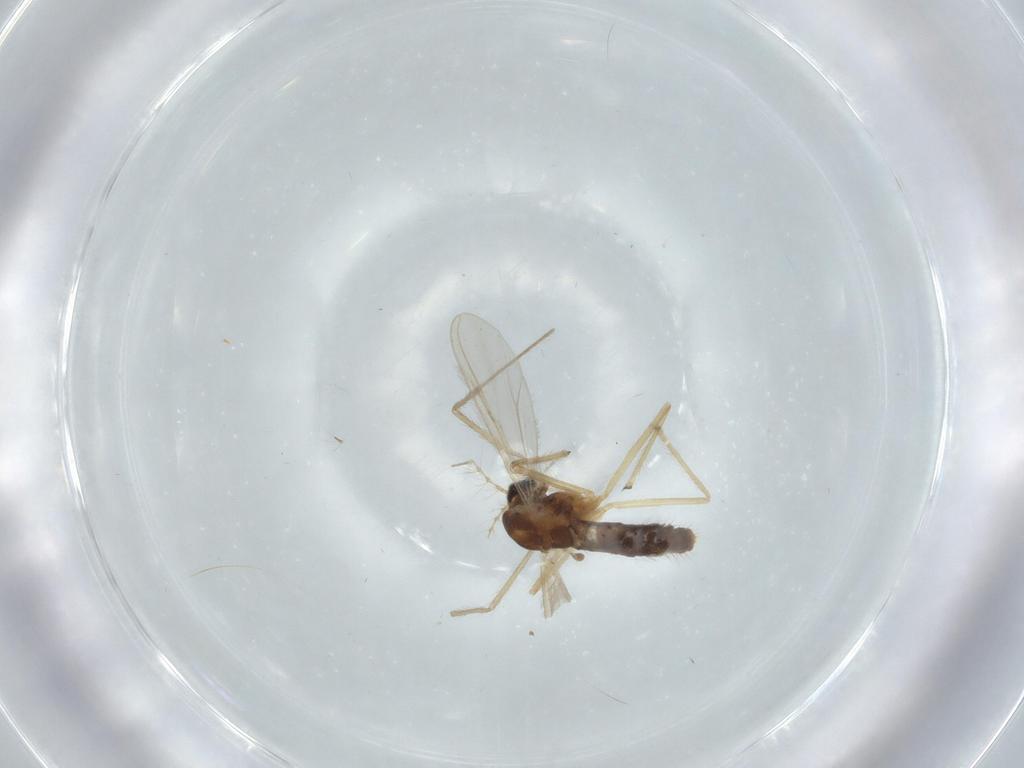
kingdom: Animalia
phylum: Arthropoda
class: Insecta
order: Diptera
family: Chironomidae
